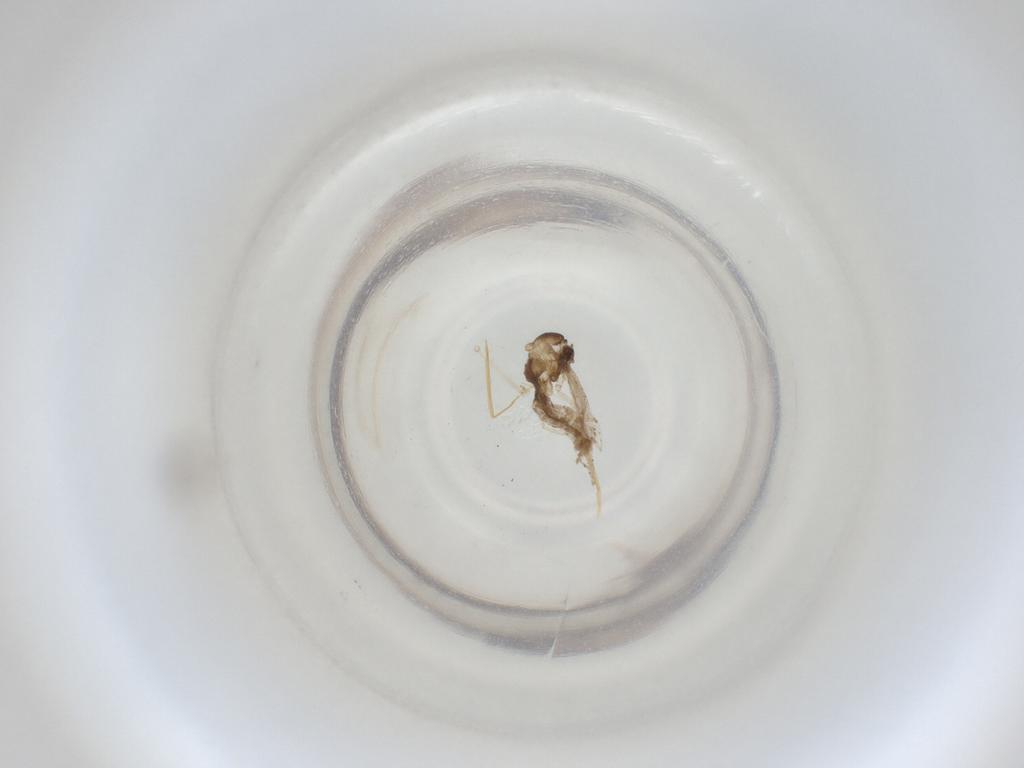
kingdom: Animalia
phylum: Arthropoda
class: Insecta
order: Diptera
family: Cecidomyiidae
